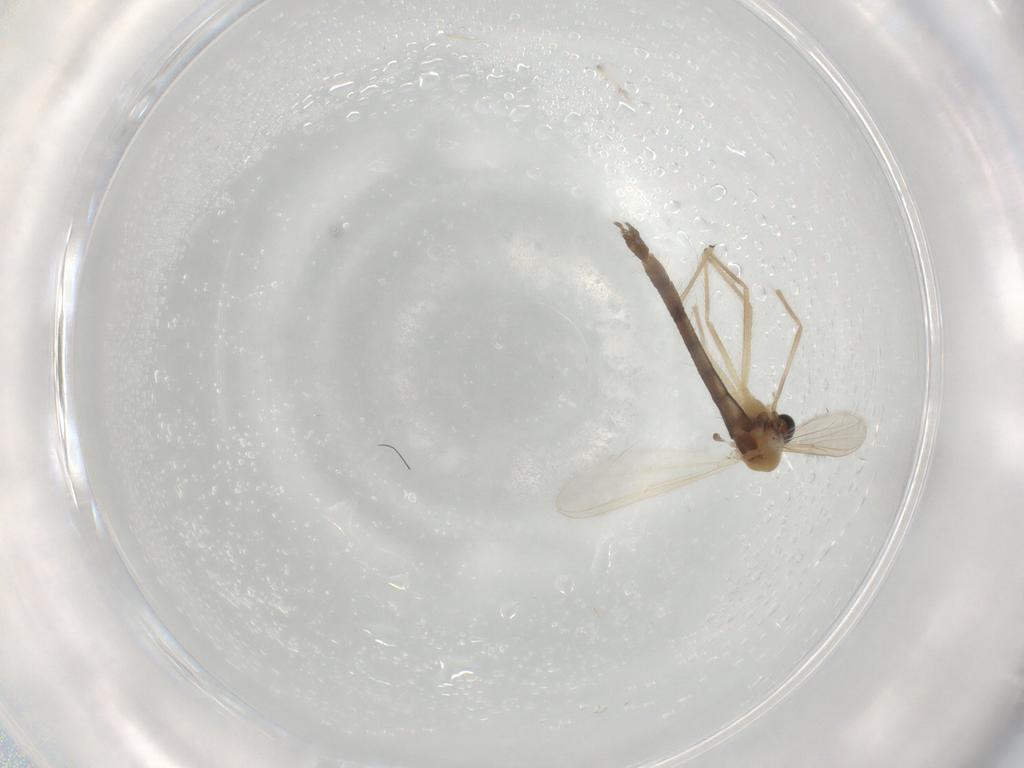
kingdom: Animalia
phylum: Arthropoda
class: Insecta
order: Diptera
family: Chironomidae
